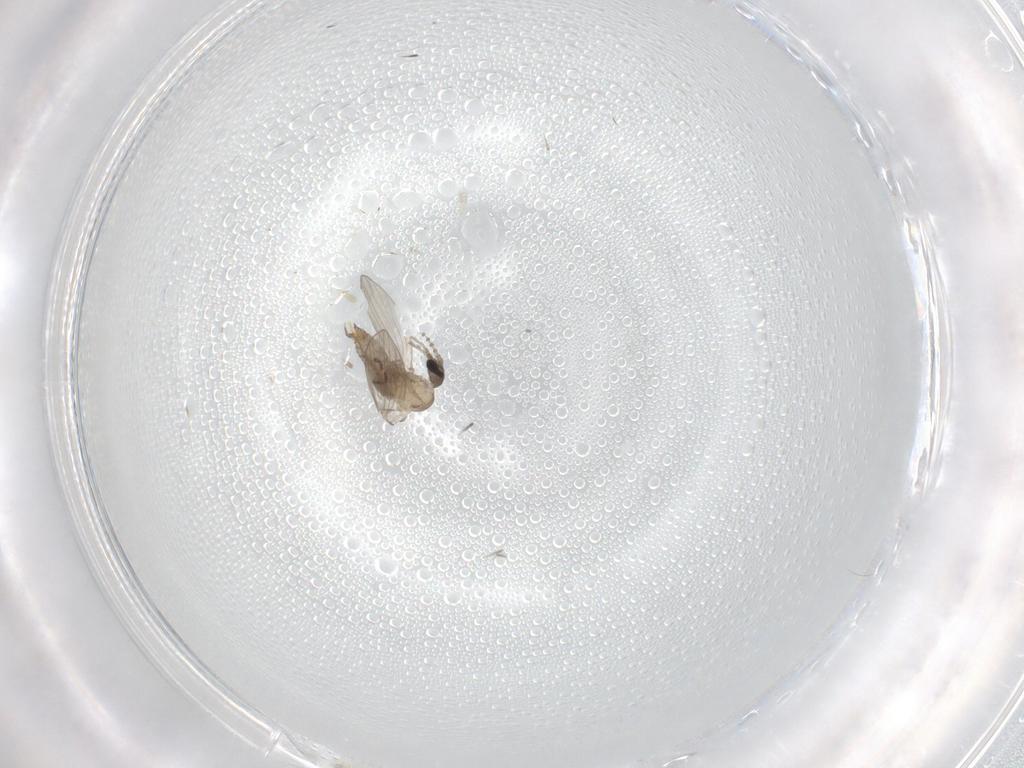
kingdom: Animalia
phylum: Arthropoda
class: Insecta
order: Diptera
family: Psychodidae
